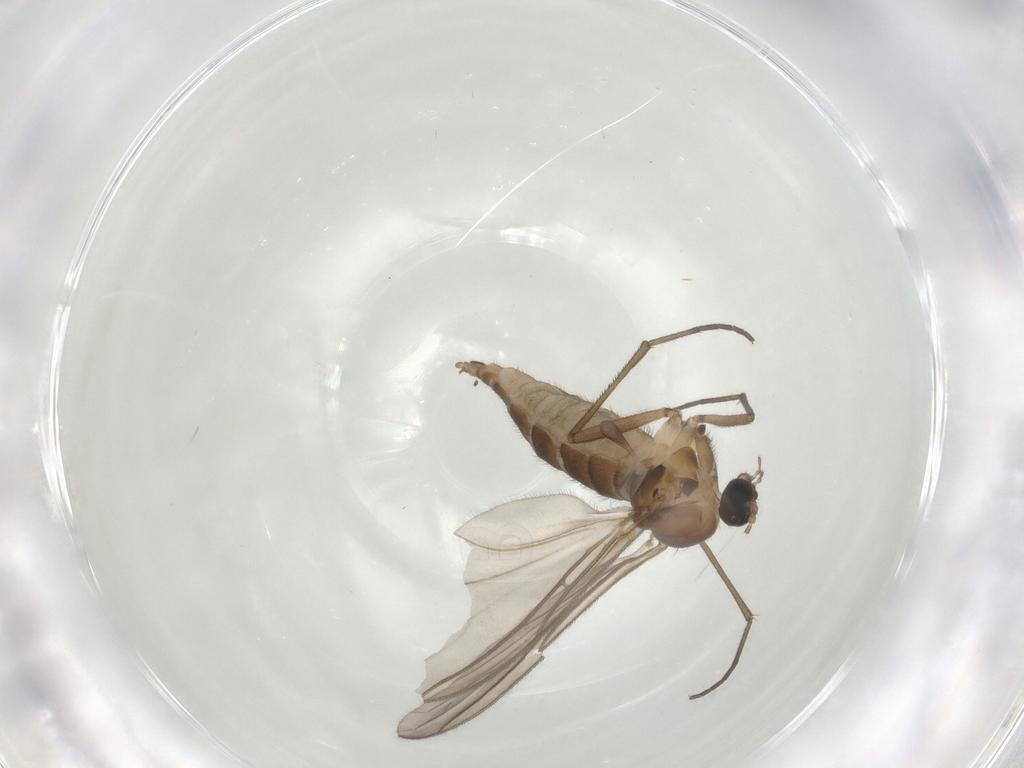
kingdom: Animalia
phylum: Arthropoda
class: Insecta
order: Diptera
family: Sciaridae
